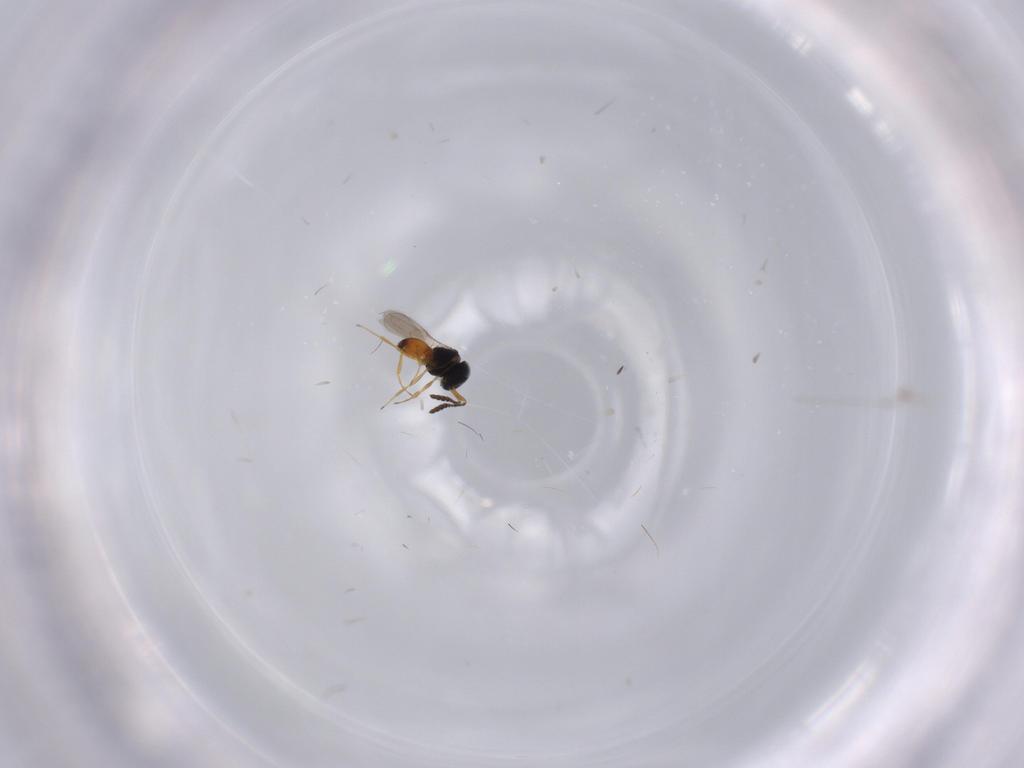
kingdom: Animalia
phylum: Arthropoda
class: Insecta
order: Hymenoptera
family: Scelionidae
